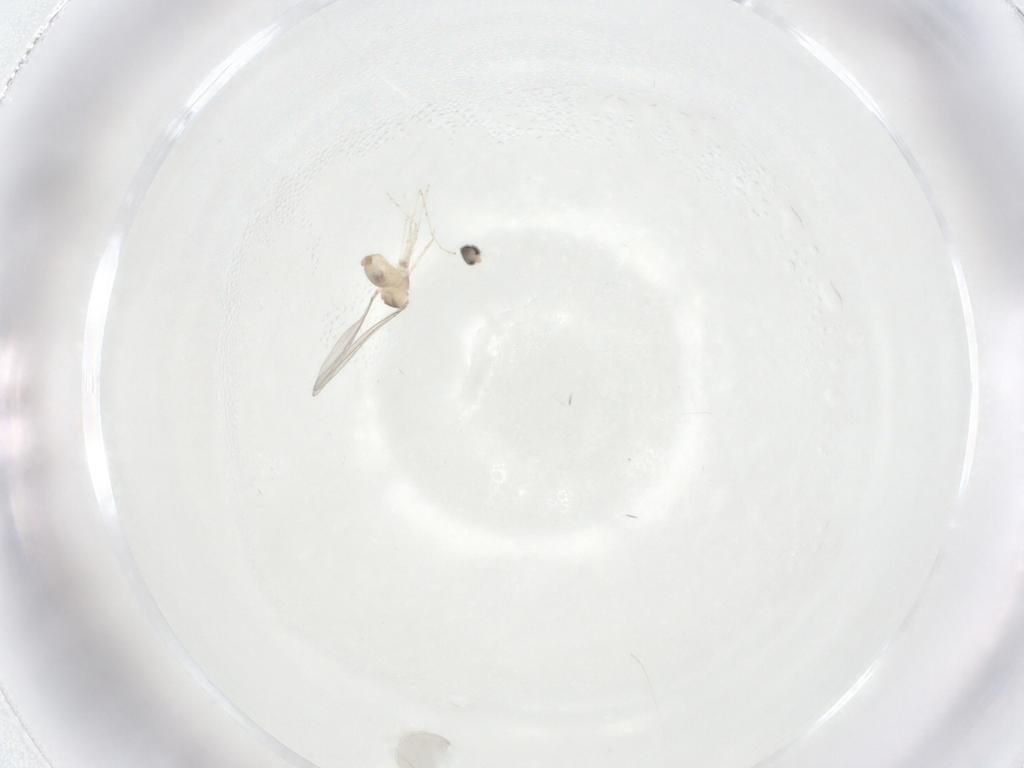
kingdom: Animalia
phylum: Arthropoda
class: Insecta
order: Diptera
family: Cecidomyiidae
